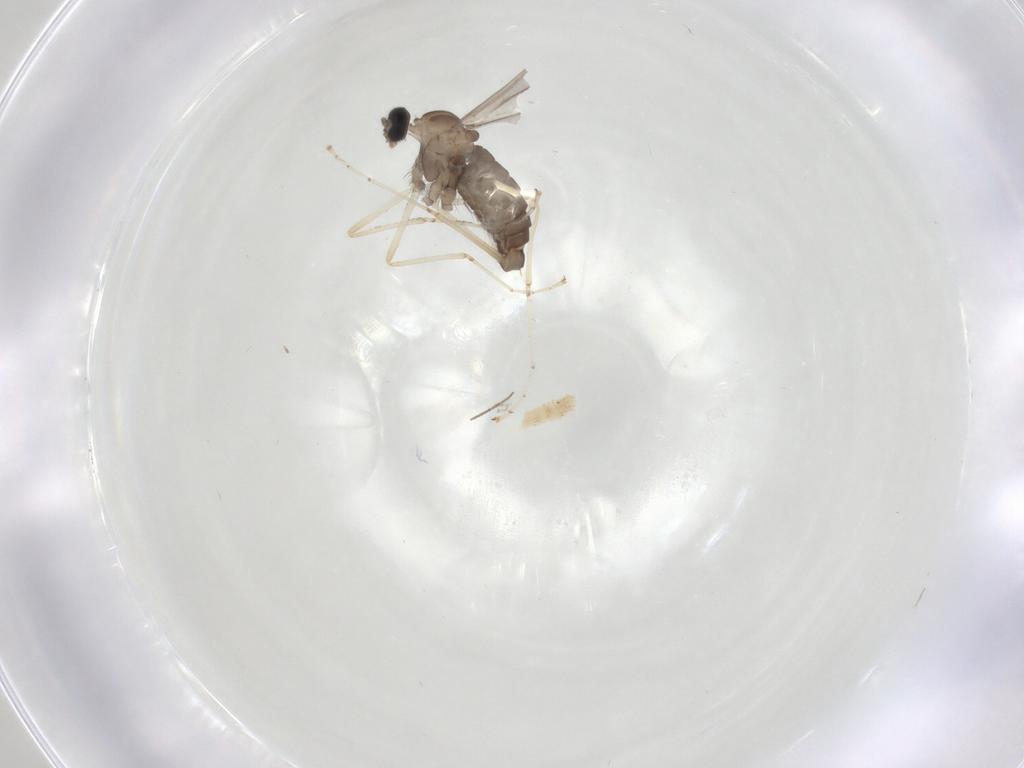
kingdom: Animalia
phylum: Arthropoda
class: Insecta
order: Diptera
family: Cecidomyiidae
